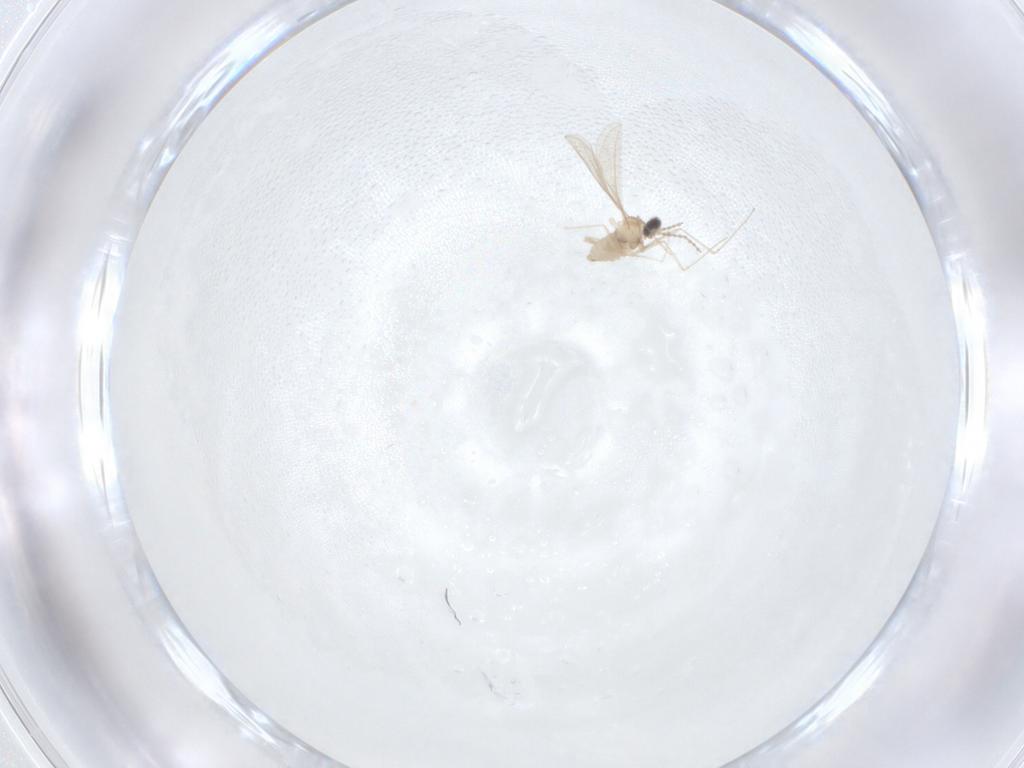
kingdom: Animalia
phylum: Arthropoda
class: Insecta
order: Diptera
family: Cecidomyiidae
